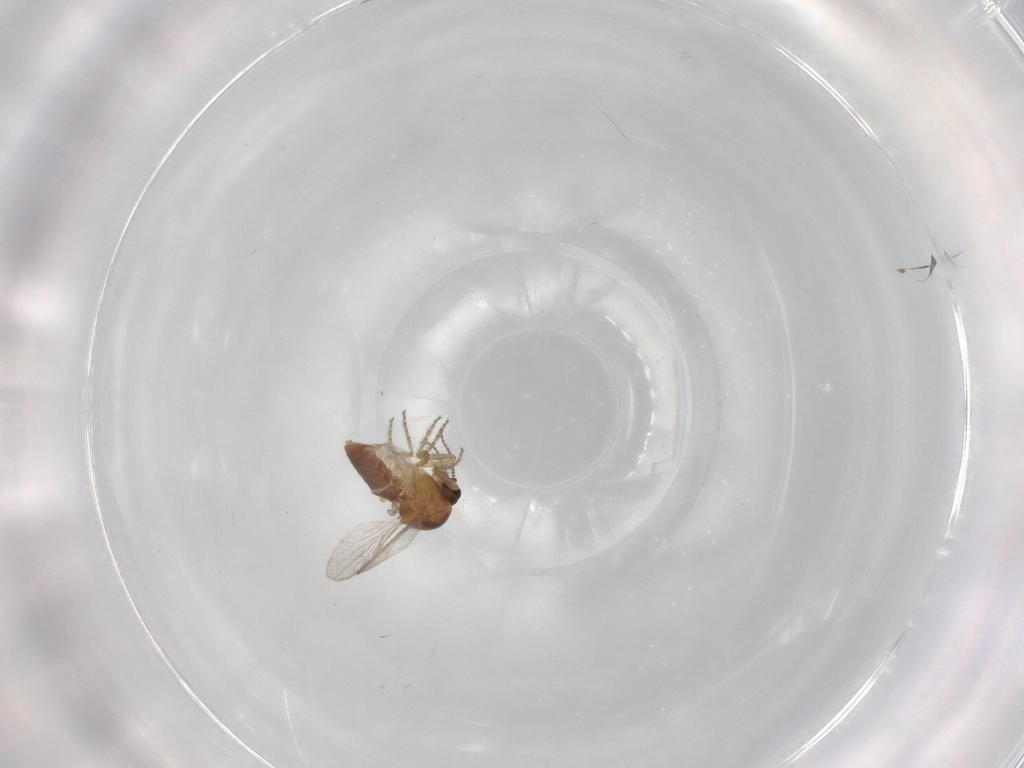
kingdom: Animalia
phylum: Arthropoda
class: Insecta
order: Diptera
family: Ceratopogonidae
